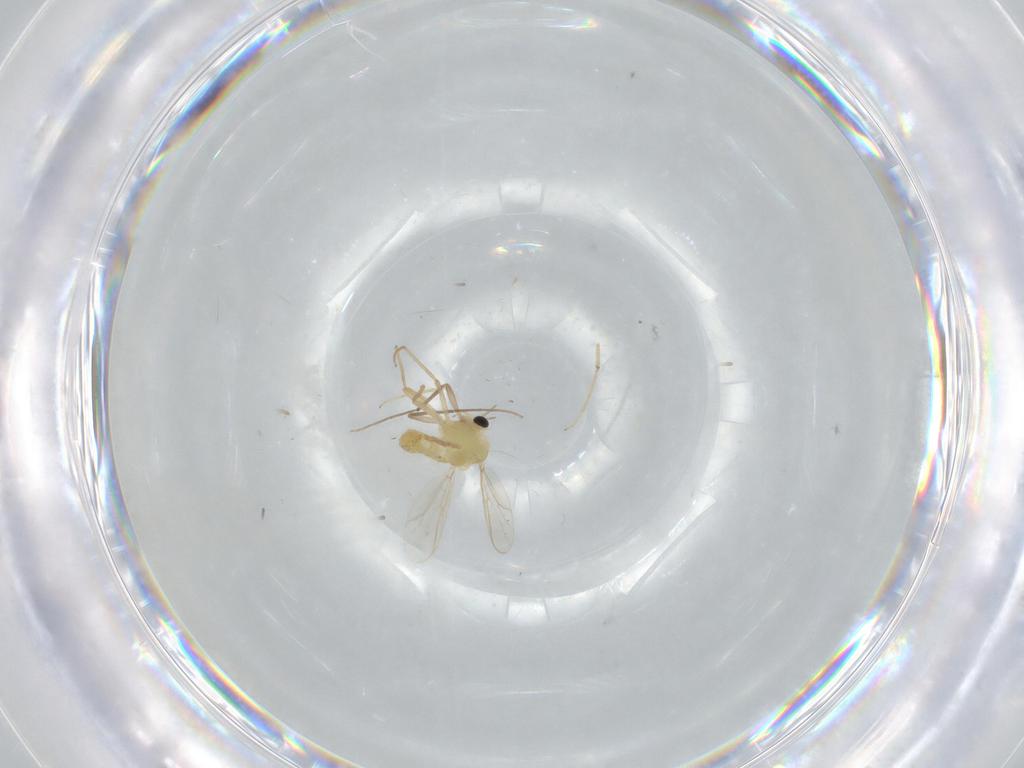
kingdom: Animalia
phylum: Arthropoda
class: Insecta
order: Diptera
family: Chironomidae
